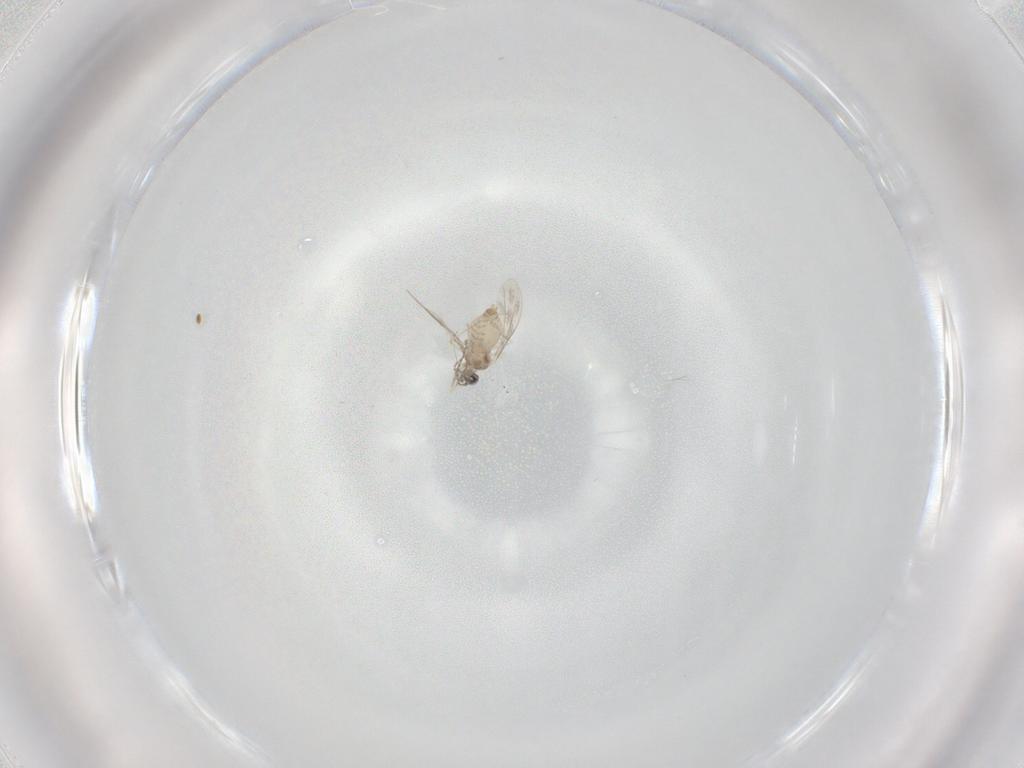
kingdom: Animalia
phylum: Arthropoda
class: Insecta
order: Diptera
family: Cecidomyiidae
